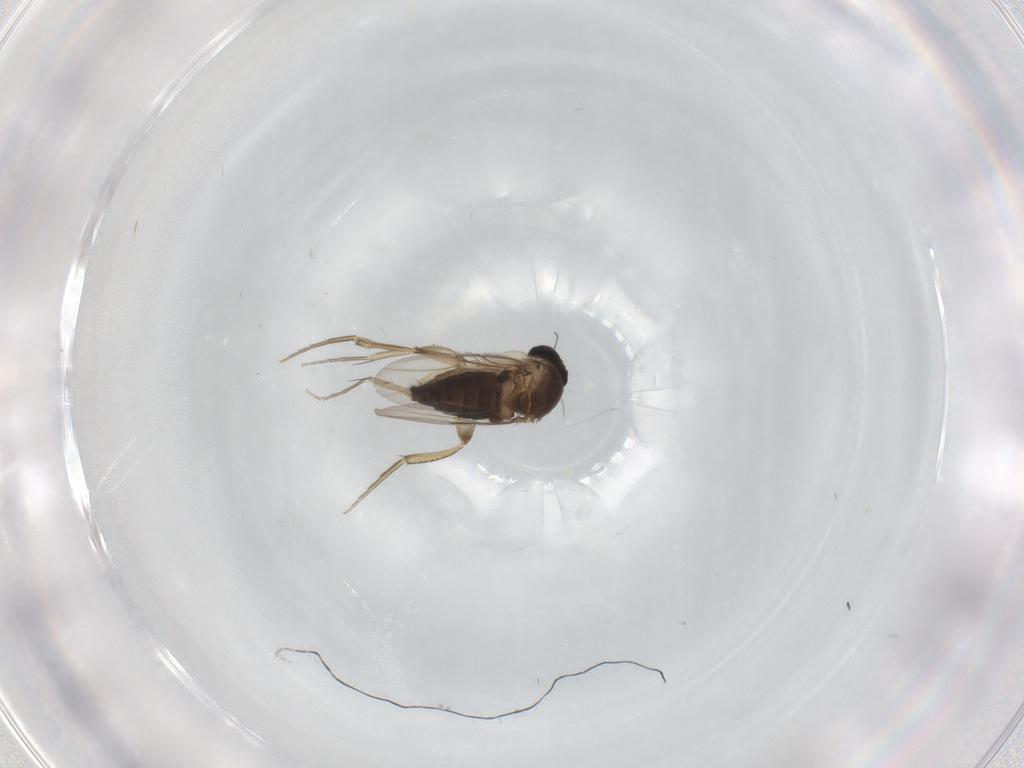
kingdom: Animalia
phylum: Arthropoda
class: Insecta
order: Diptera
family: Phoridae
